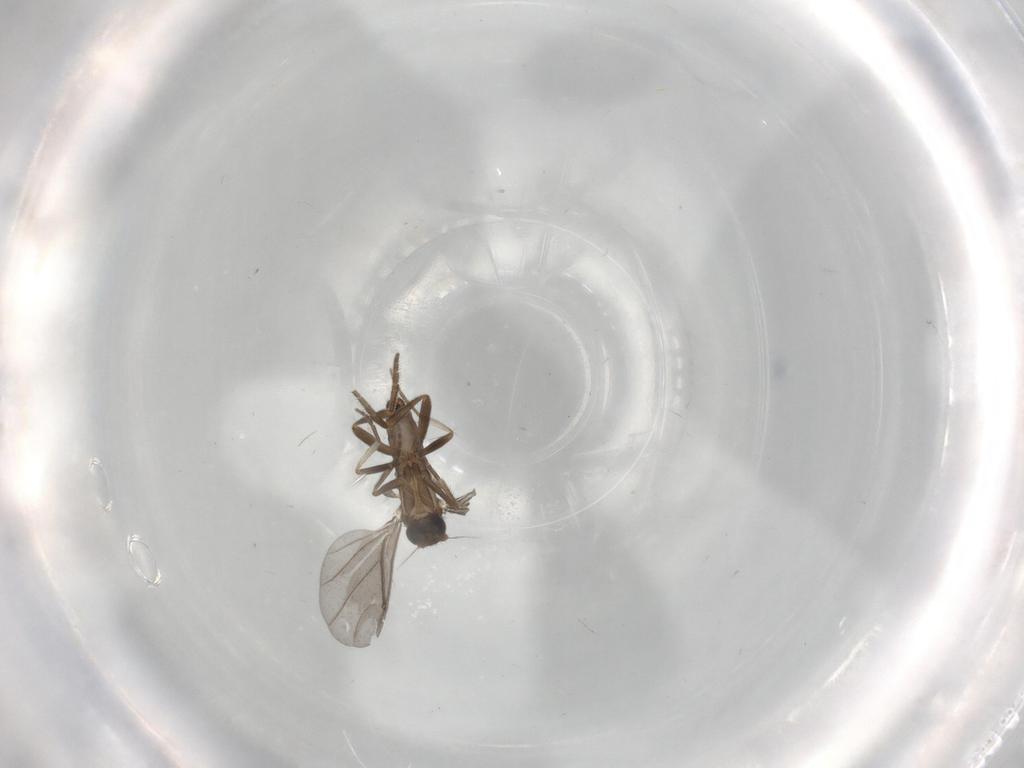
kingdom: Animalia
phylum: Arthropoda
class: Insecta
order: Diptera
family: Phoridae
